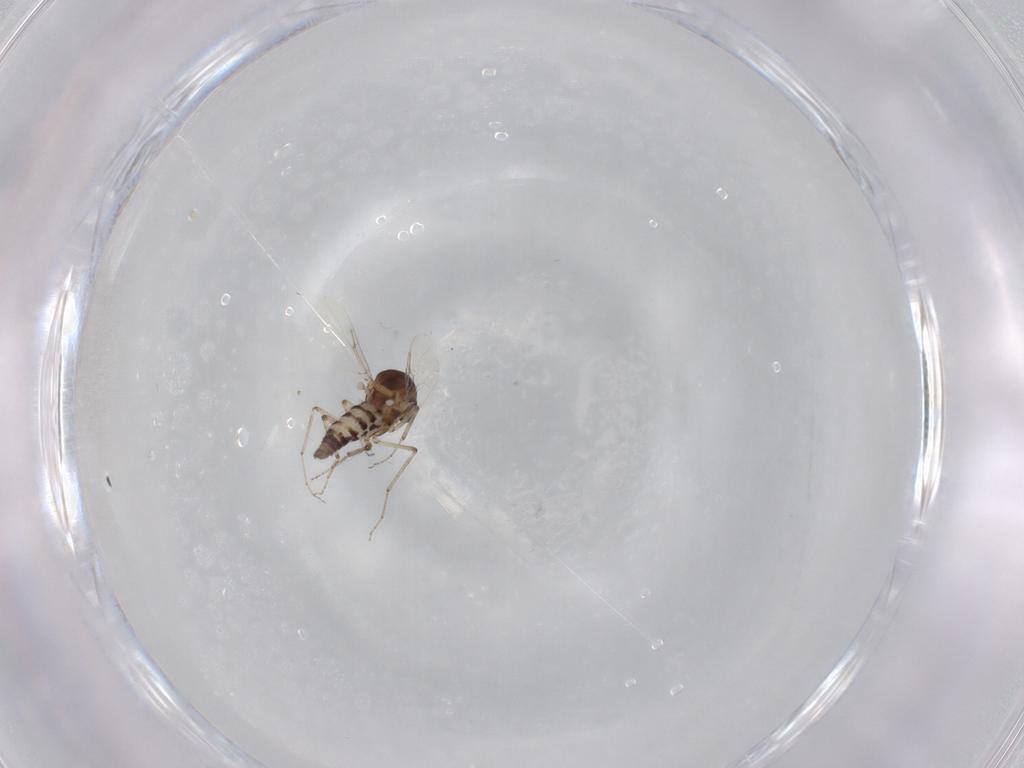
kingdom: Animalia
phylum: Arthropoda
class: Insecta
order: Diptera
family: Ceratopogonidae
